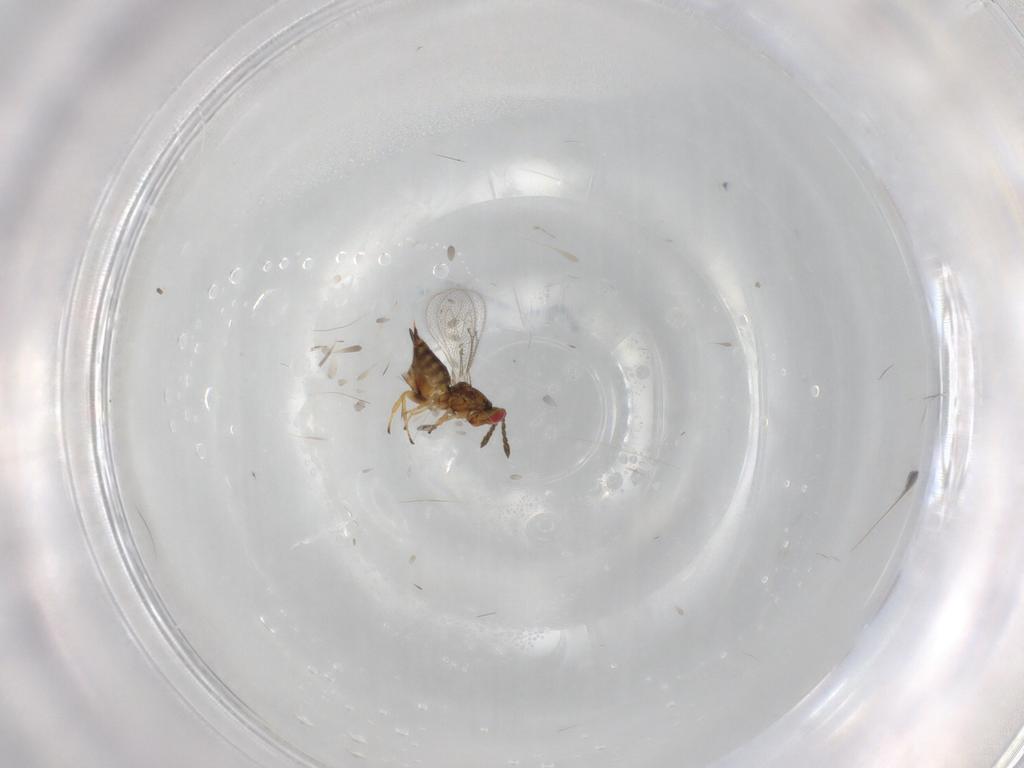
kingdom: Animalia
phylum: Arthropoda
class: Insecta
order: Hymenoptera
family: Eulophidae
